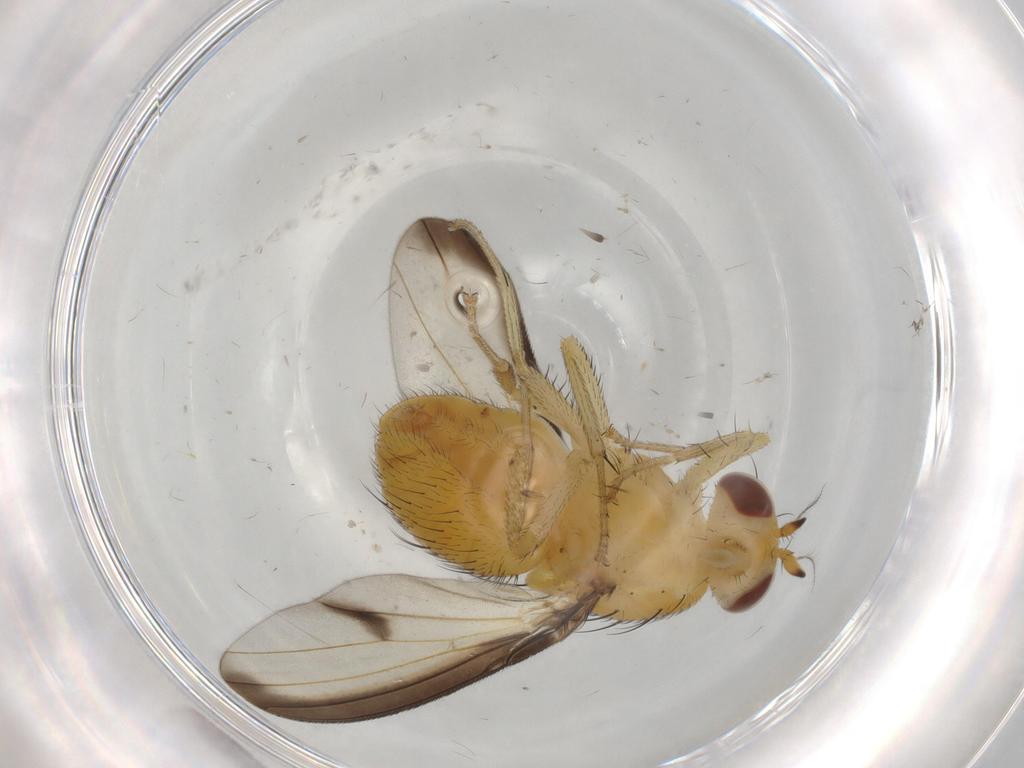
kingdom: Animalia
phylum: Arthropoda
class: Insecta
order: Diptera
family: Lauxaniidae
